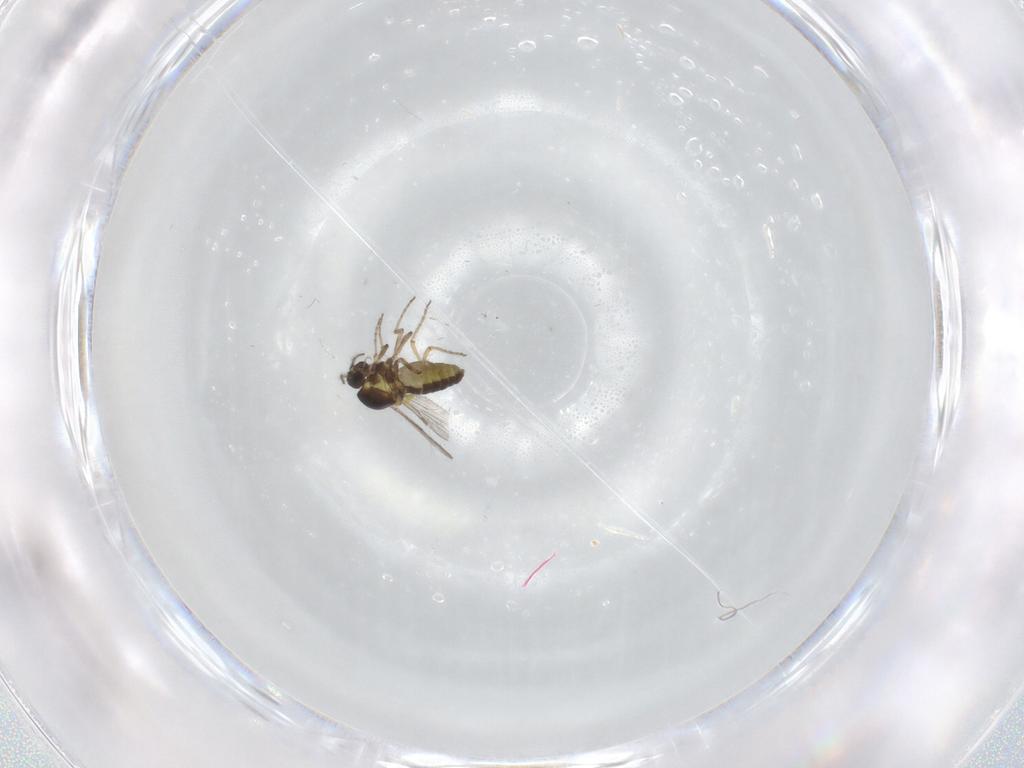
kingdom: Animalia
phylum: Arthropoda
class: Insecta
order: Diptera
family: Ceratopogonidae
